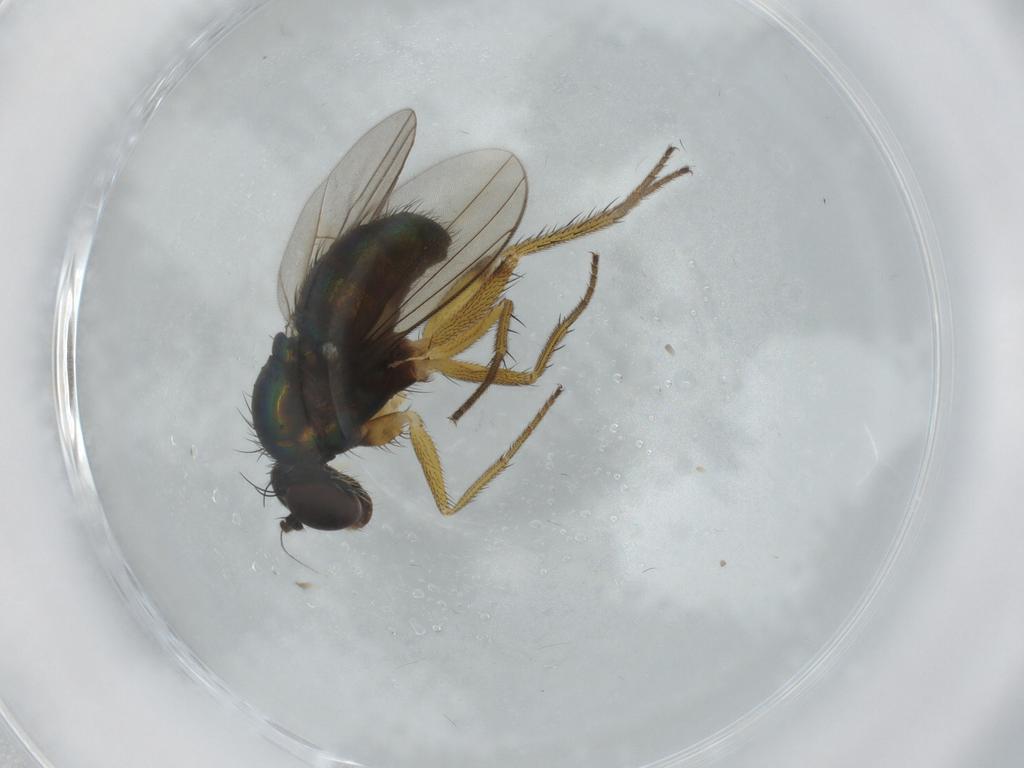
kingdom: Animalia
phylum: Arthropoda
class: Insecta
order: Diptera
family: Dolichopodidae
